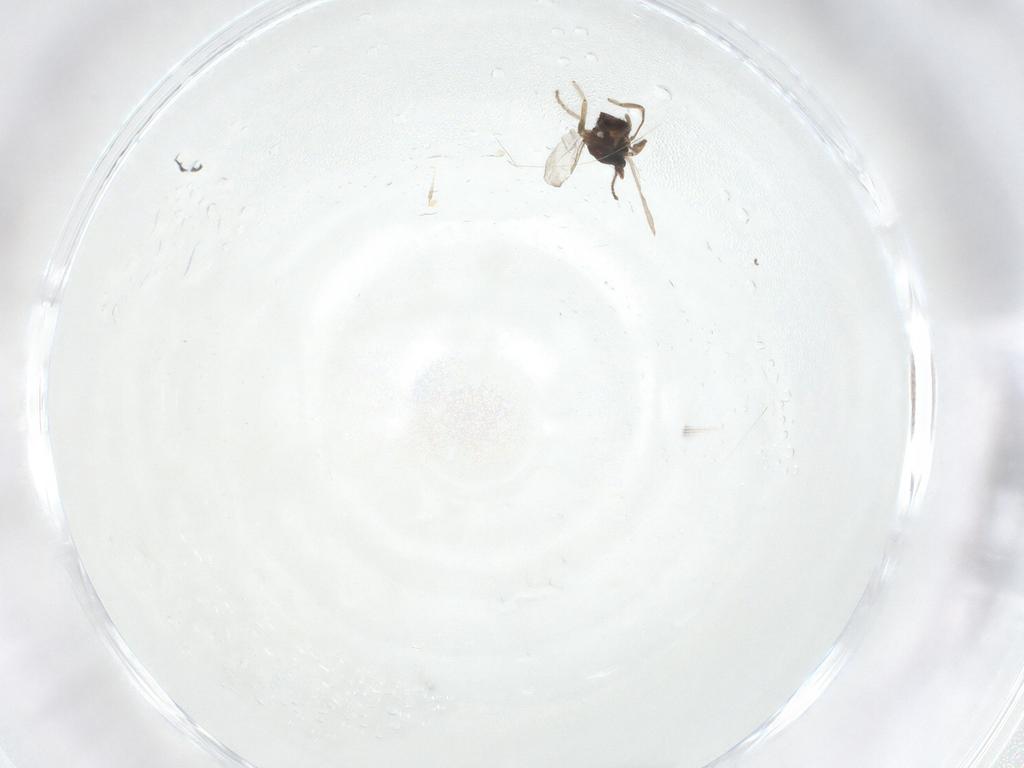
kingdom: Animalia
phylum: Arthropoda
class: Insecta
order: Diptera
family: Ceratopogonidae
